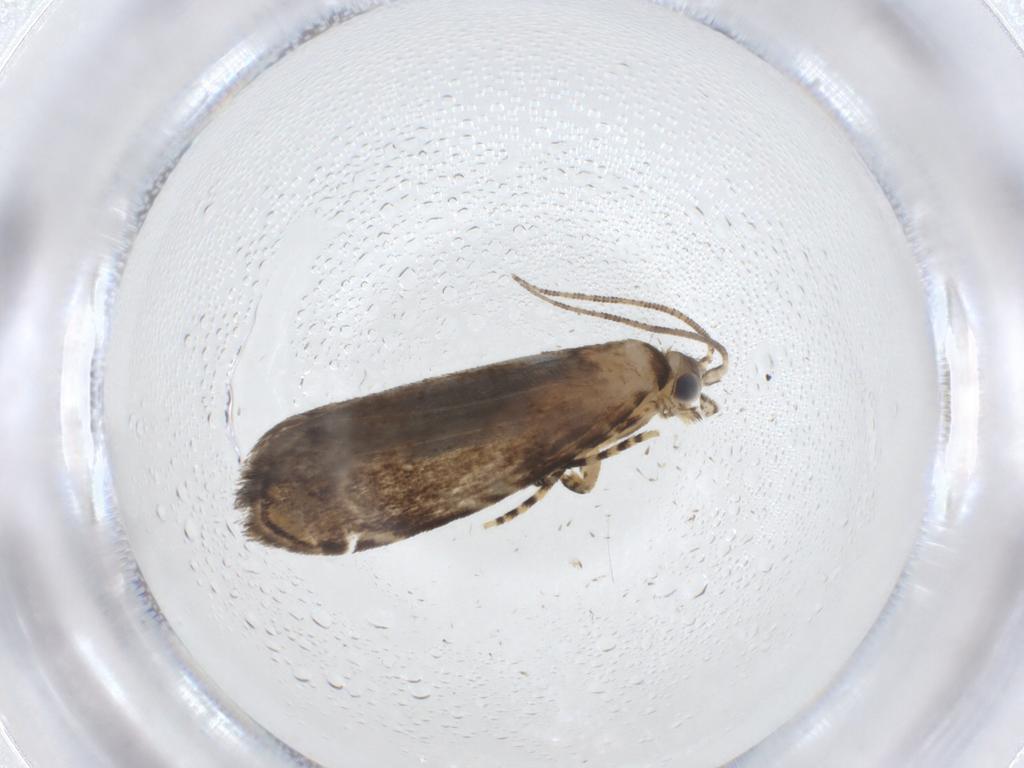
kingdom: Animalia
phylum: Arthropoda
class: Insecta
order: Lepidoptera
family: Tineidae
